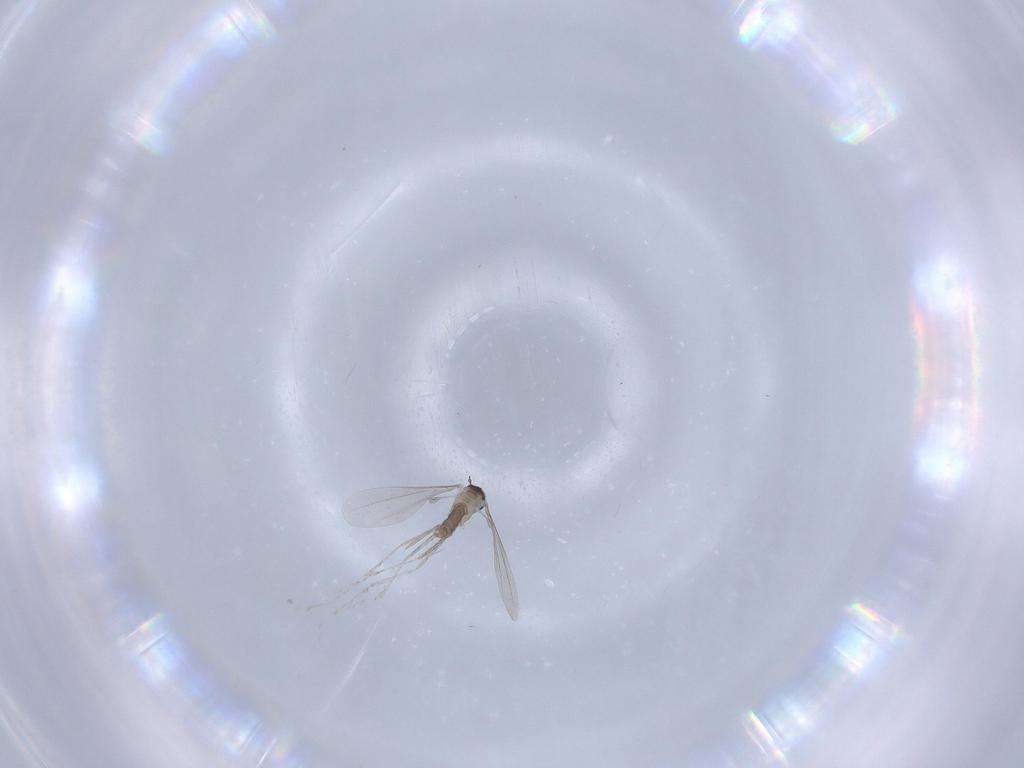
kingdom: Animalia
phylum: Arthropoda
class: Insecta
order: Diptera
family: Cecidomyiidae
